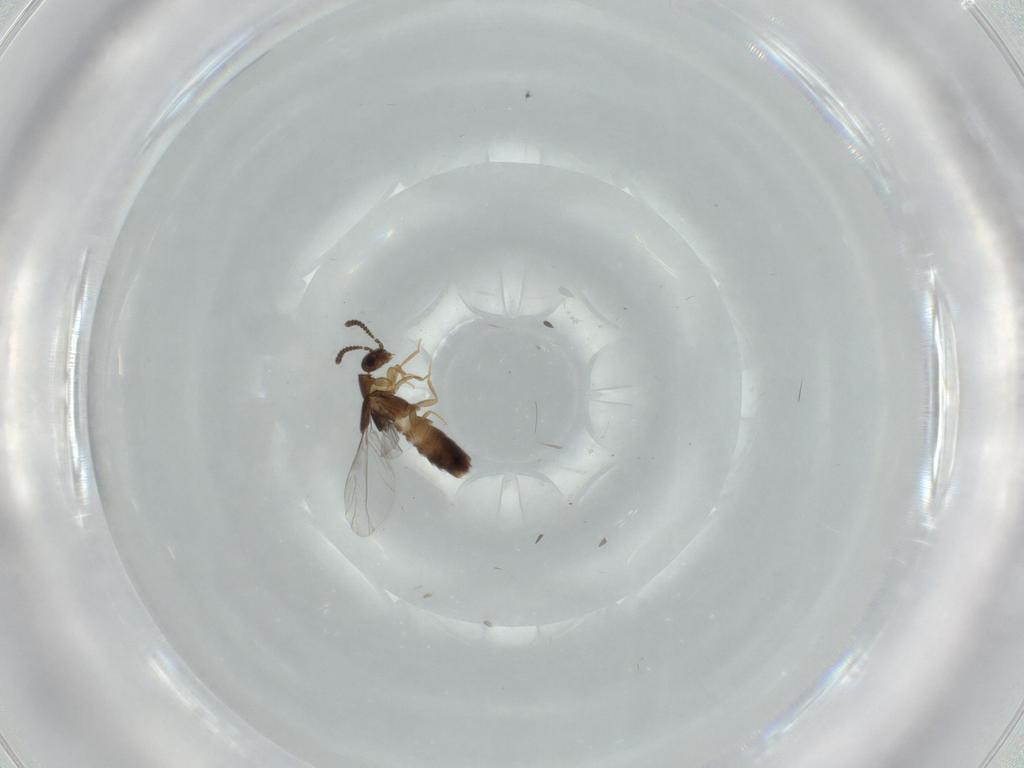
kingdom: Animalia
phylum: Arthropoda
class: Insecta
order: Coleoptera
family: Staphylinidae
